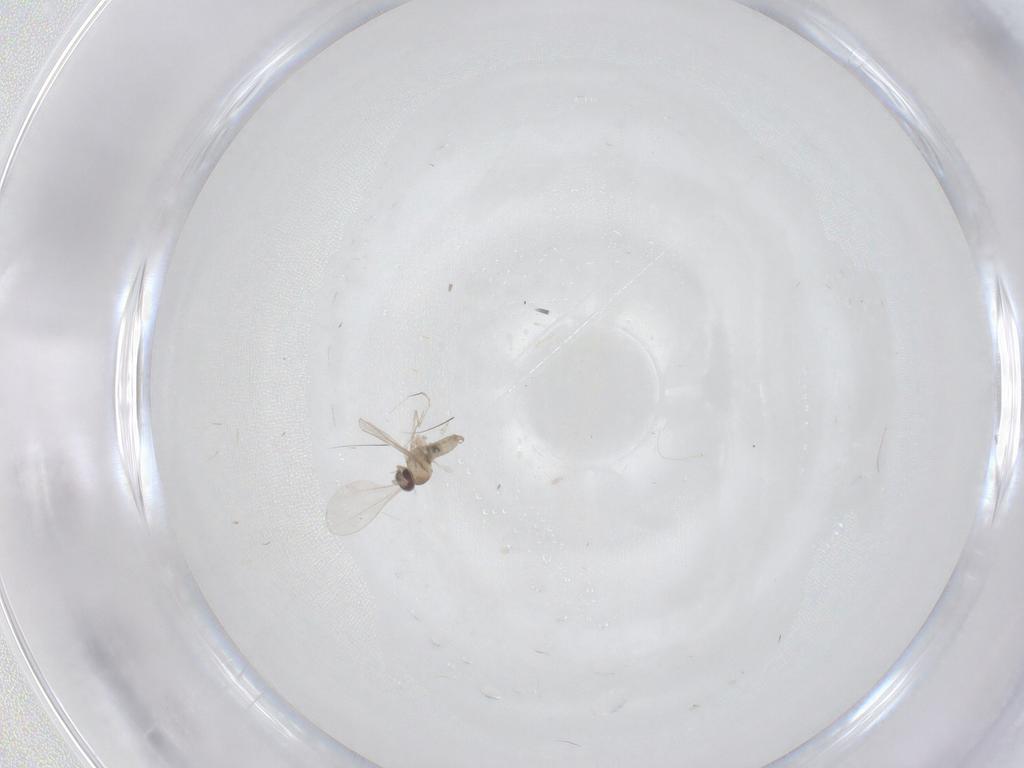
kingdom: Animalia
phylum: Arthropoda
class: Insecta
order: Diptera
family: Cecidomyiidae
